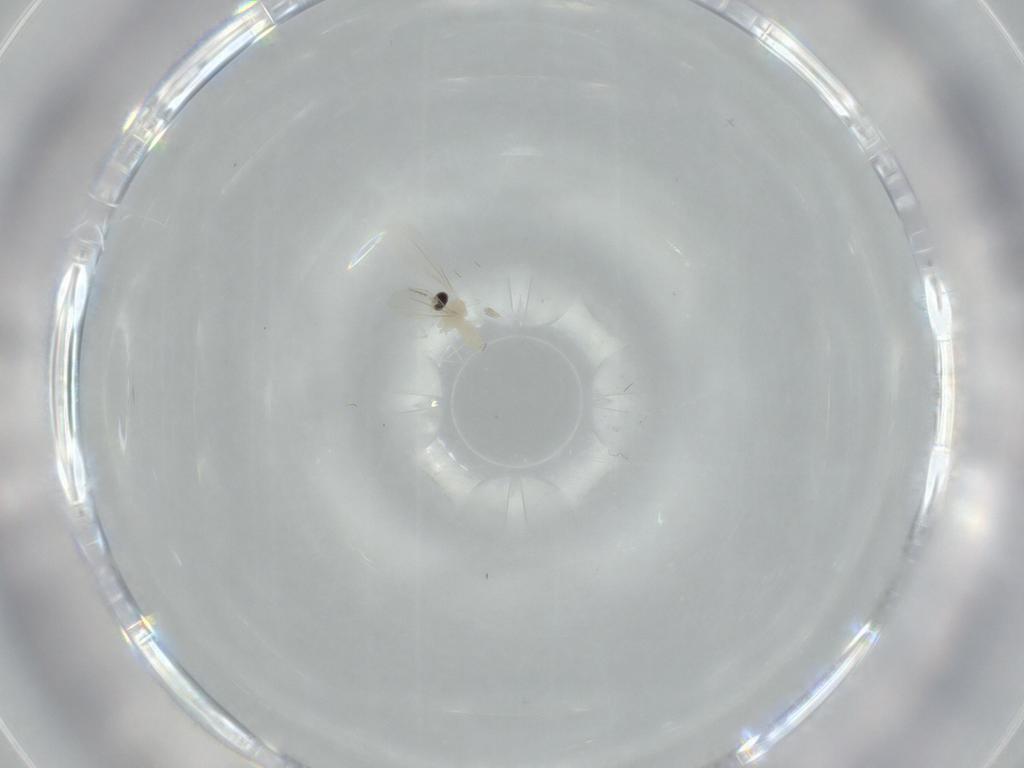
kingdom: Animalia
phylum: Arthropoda
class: Insecta
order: Diptera
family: Cecidomyiidae
